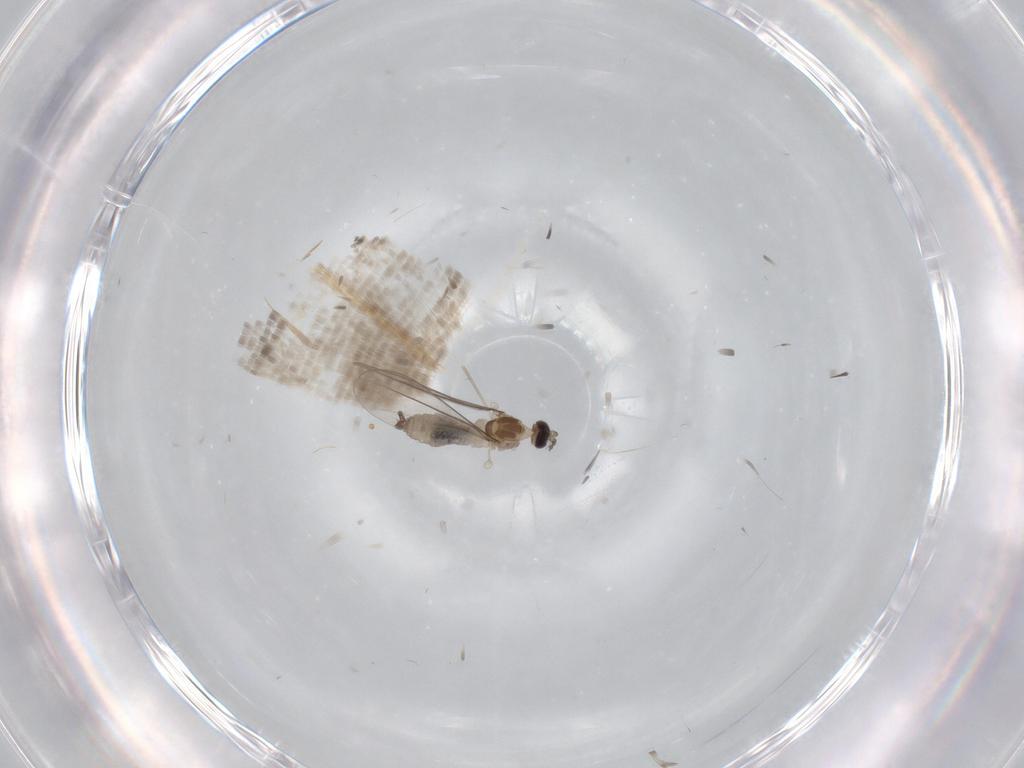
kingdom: Animalia
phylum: Arthropoda
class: Insecta
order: Diptera
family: Cecidomyiidae
